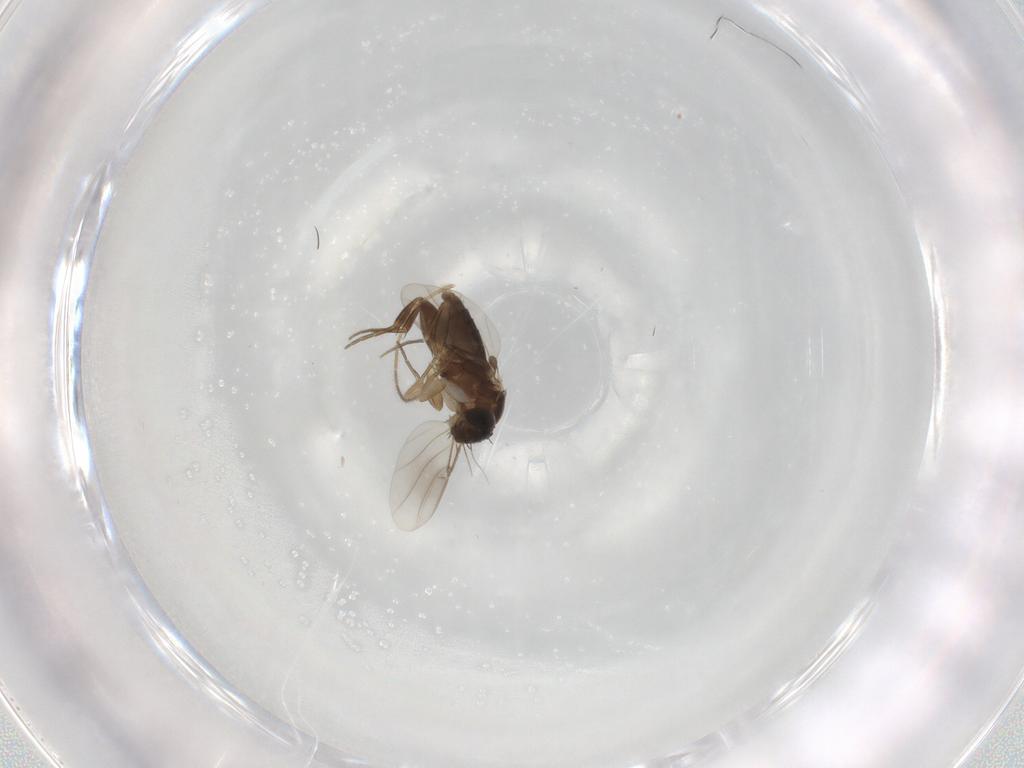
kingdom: Animalia
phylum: Arthropoda
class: Insecta
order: Diptera
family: Phoridae
